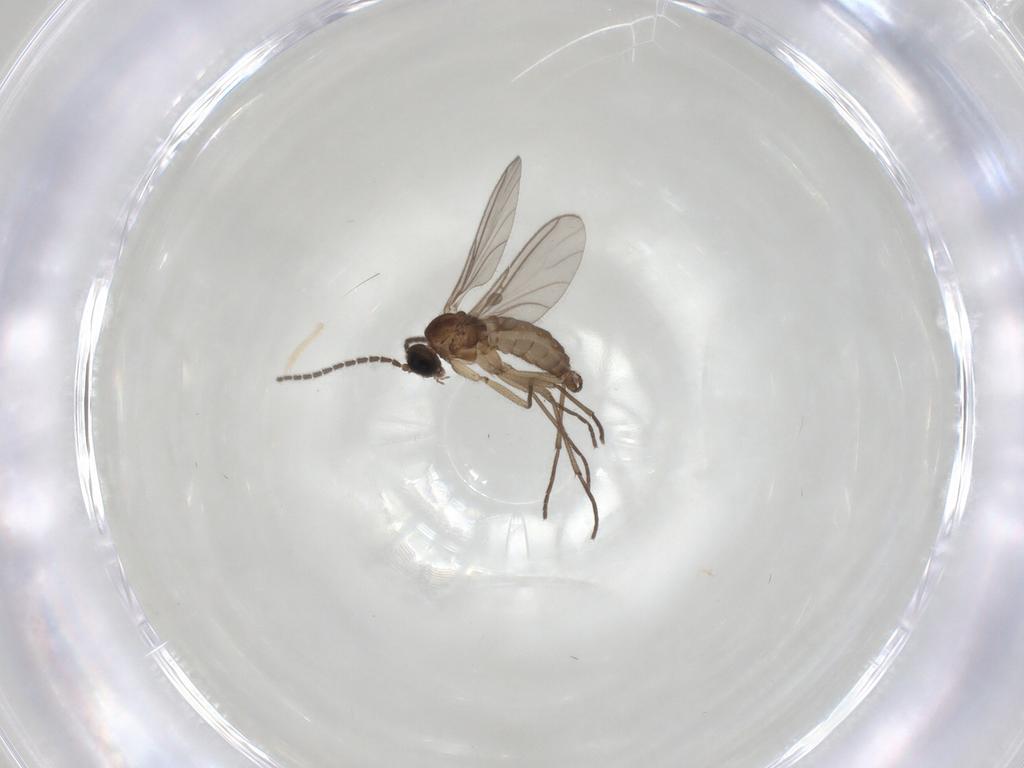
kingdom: Animalia
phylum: Arthropoda
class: Insecta
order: Diptera
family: Sciaridae
